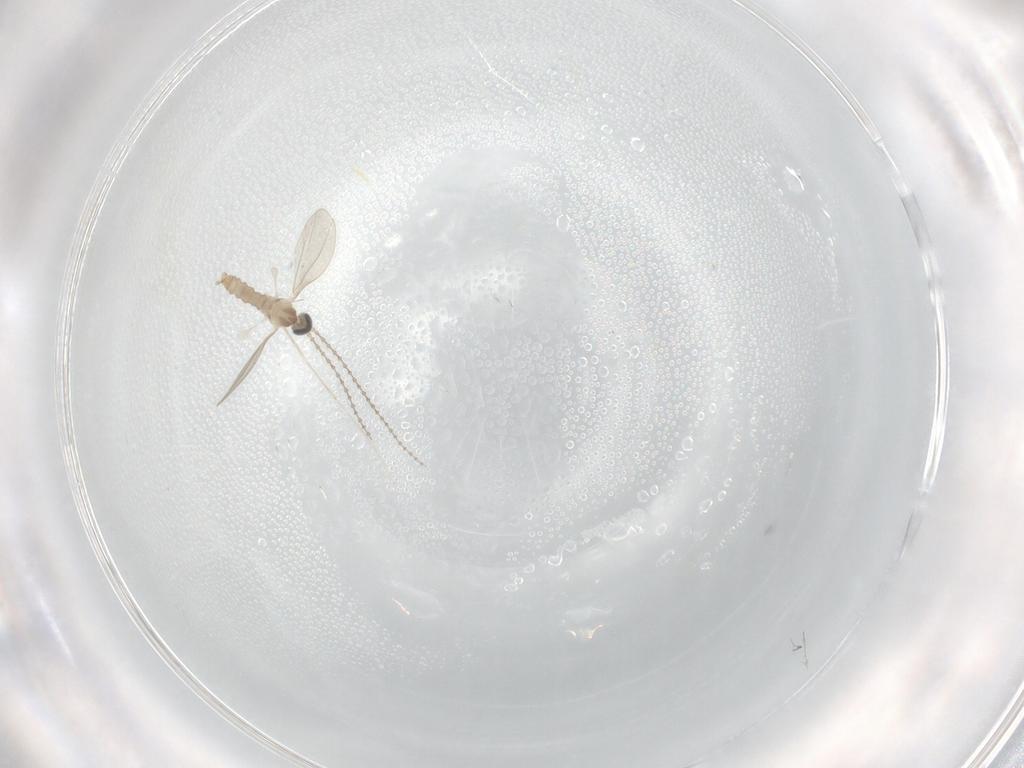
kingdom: Animalia
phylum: Arthropoda
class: Insecta
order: Diptera
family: Cecidomyiidae
